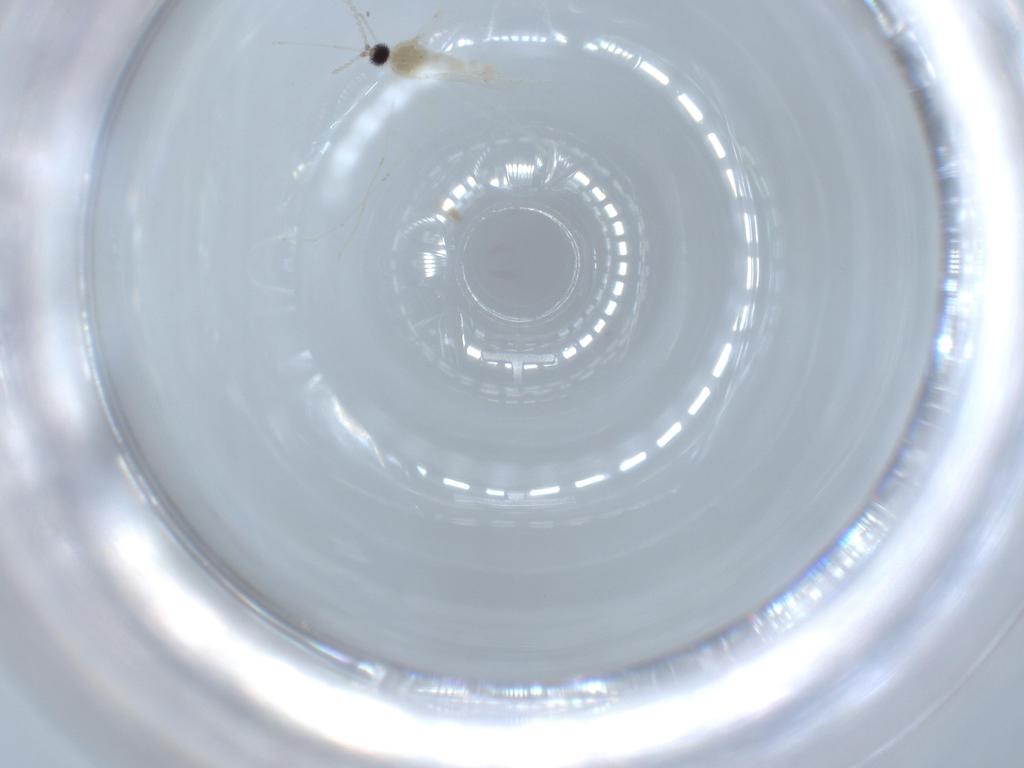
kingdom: Animalia
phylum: Arthropoda
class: Insecta
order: Diptera
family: Cecidomyiidae
